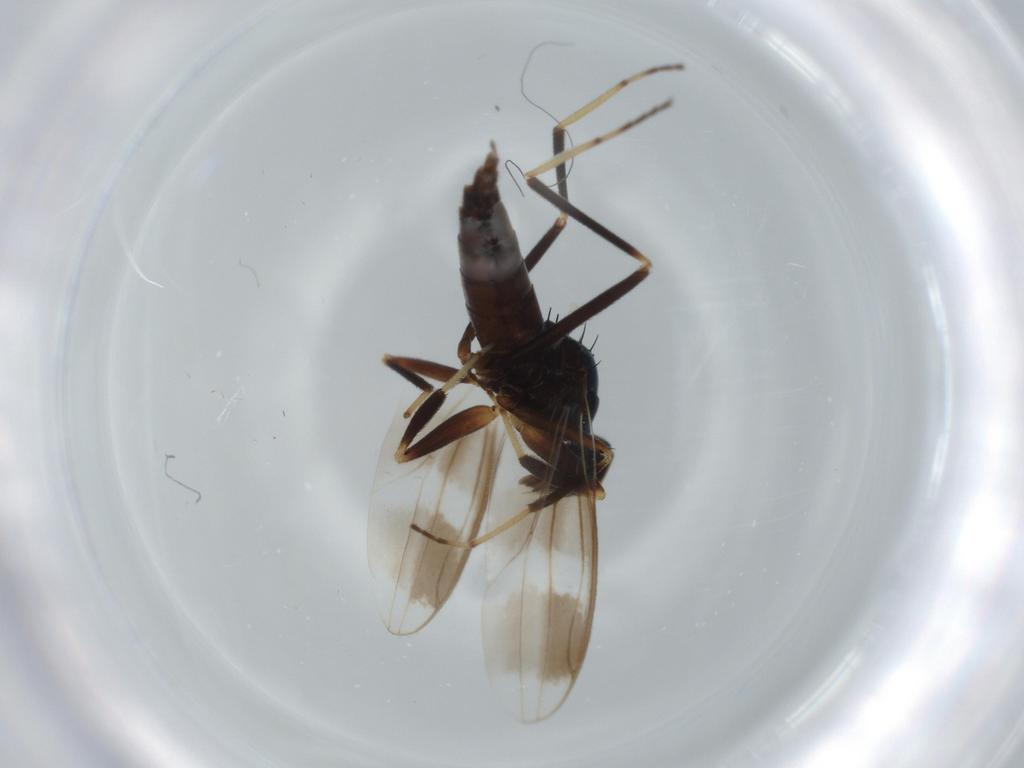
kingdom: Animalia
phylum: Arthropoda
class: Insecta
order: Diptera
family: Hybotidae
